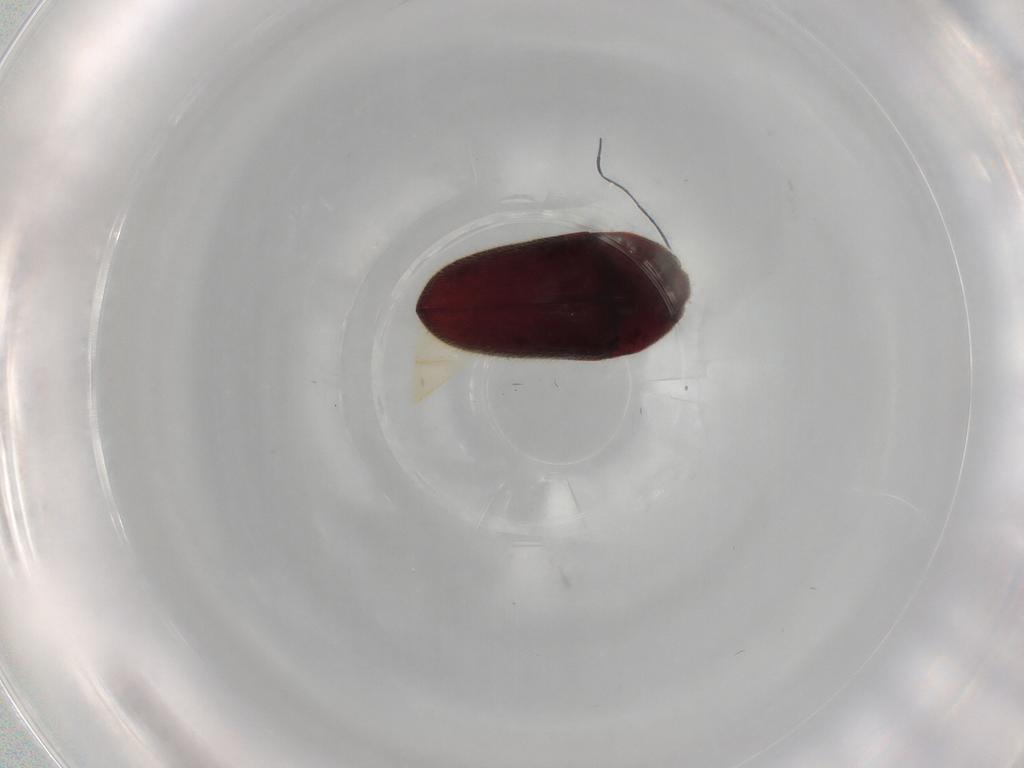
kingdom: Animalia
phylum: Arthropoda
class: Insecta
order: Coleoptera
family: Throscidae
